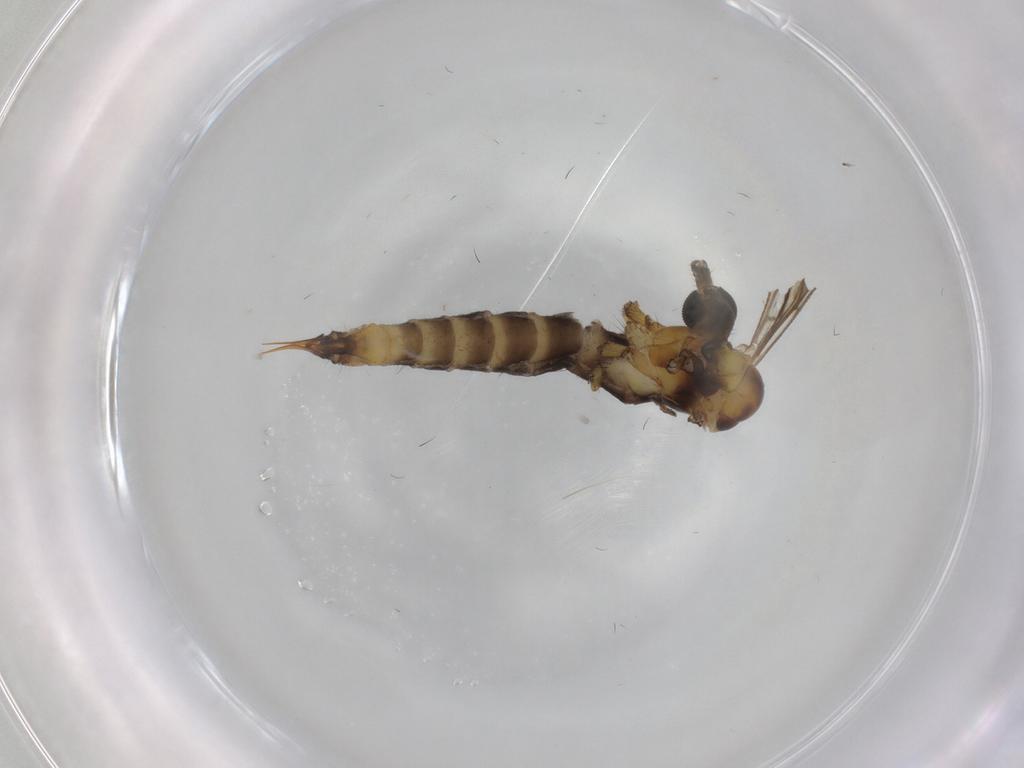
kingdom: Animalia
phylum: Arthropoda
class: Insecta
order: Diptera
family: Limoniidae
